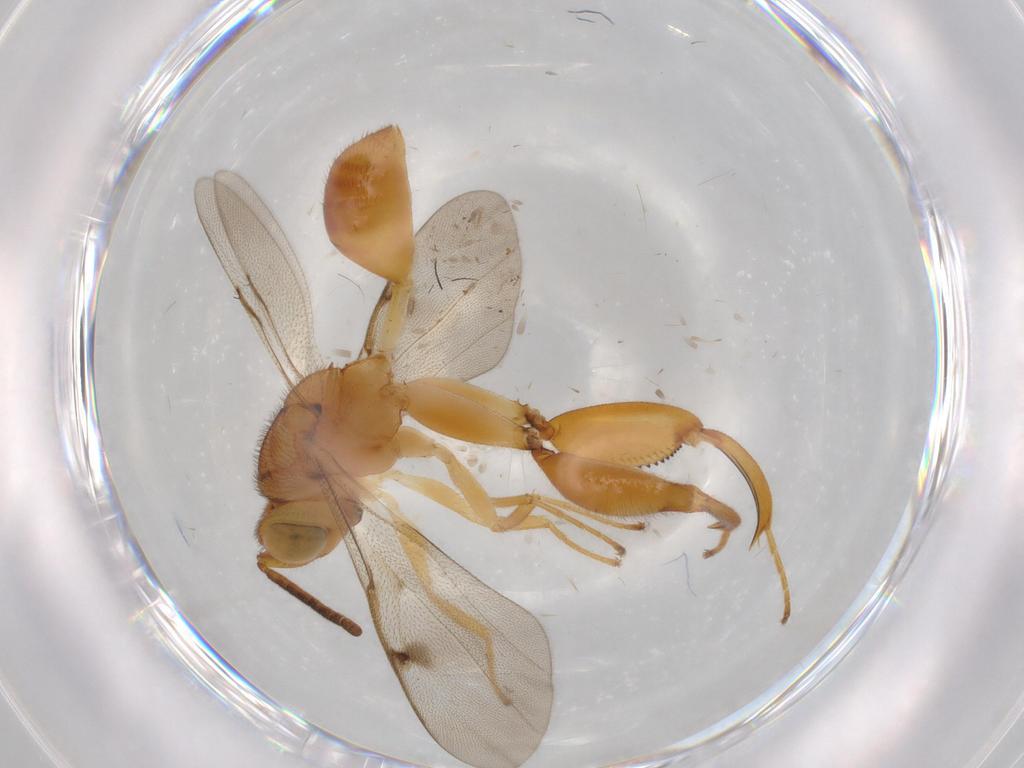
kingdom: Animalia
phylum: Arthropoda
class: Insecta
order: Hymenoptera
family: Chalcididae
